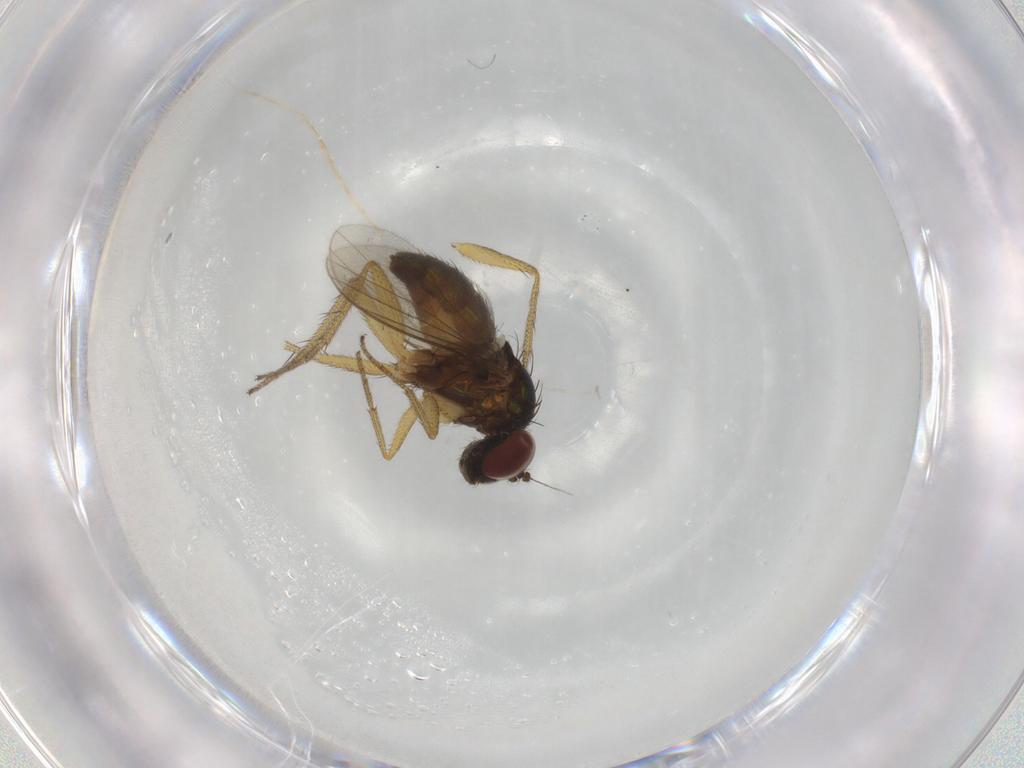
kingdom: Animalia
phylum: Arthropoda
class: Insecta
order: Diptera
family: Dolichopodidae
